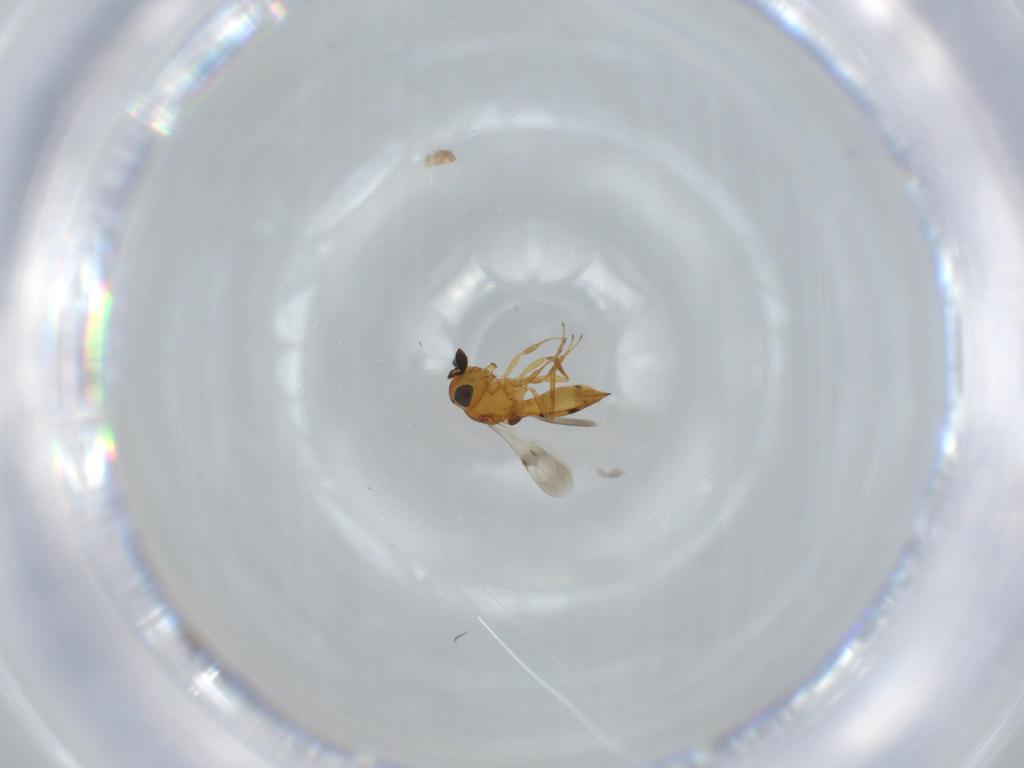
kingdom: Animalia
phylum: Arthropoda
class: Insecta
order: Hymenoptera
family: Scelionidae
